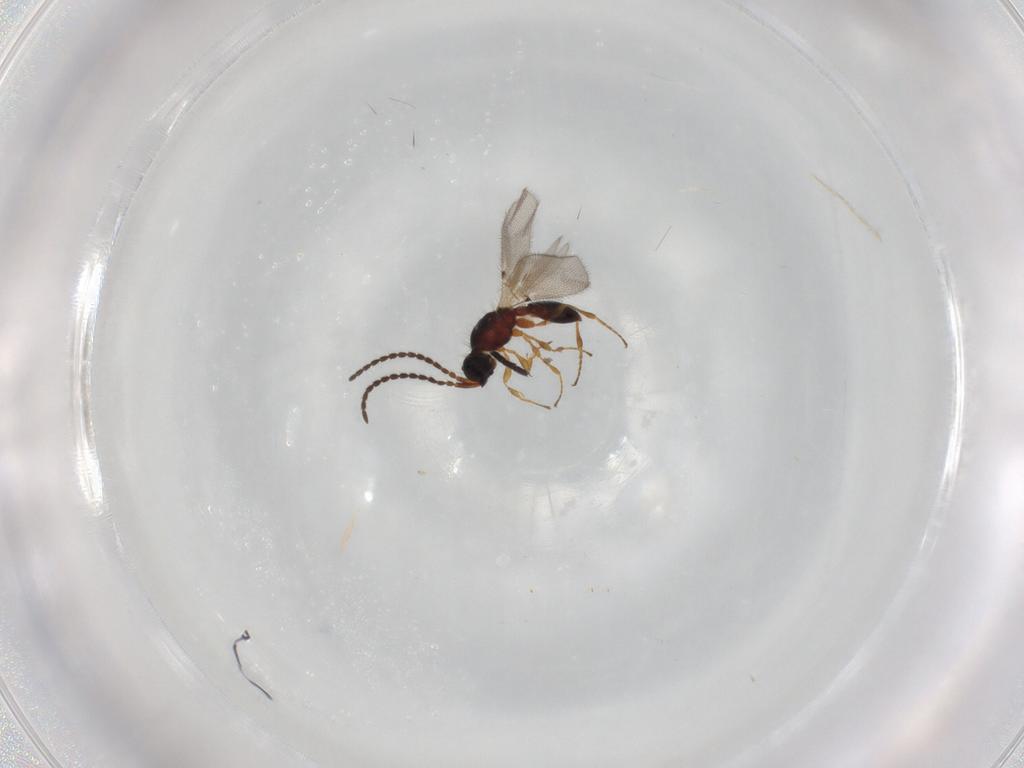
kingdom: Animalia
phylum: Arthropoda
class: Insecta
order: Hymenoptera
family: Diapriidae
